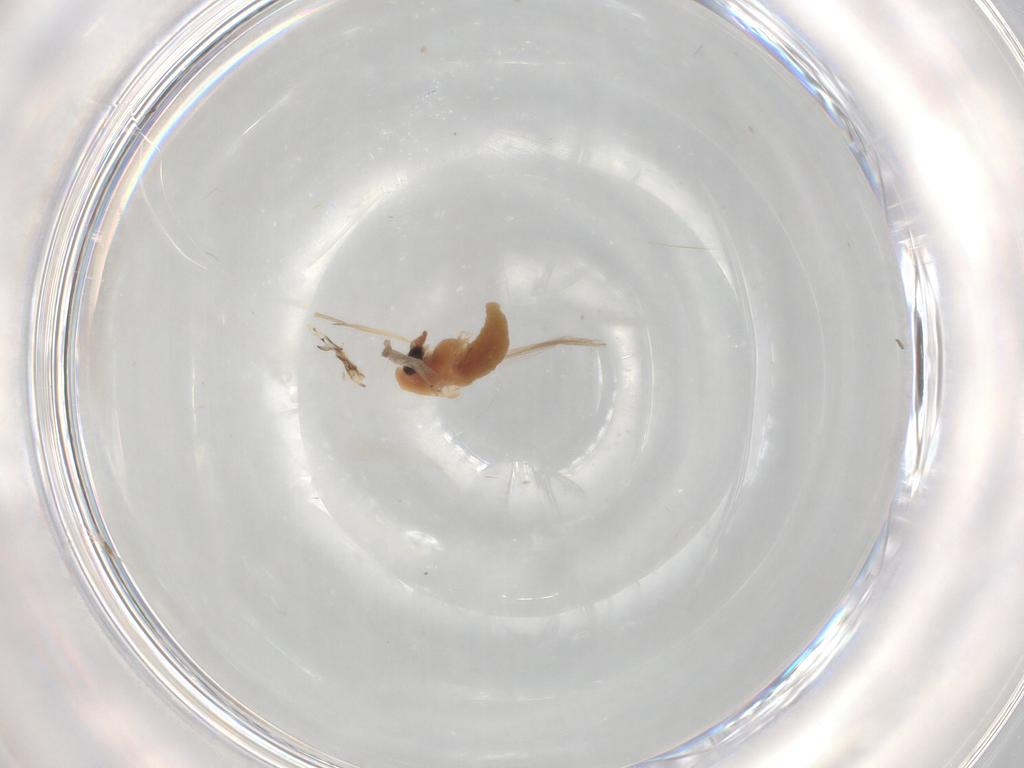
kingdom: Animalia
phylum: Arthropoda
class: Insecta
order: Diptera
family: Chironomidae
